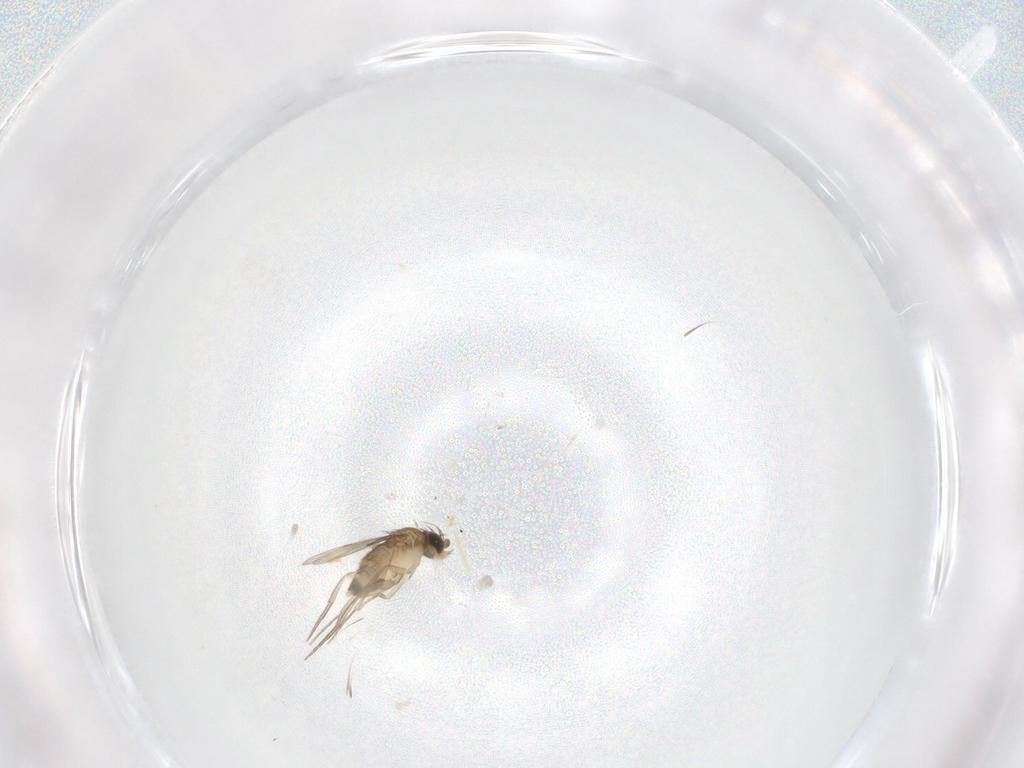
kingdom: Animalia
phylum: Arthropoda
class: Insecta
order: Diptera
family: Phoridae
